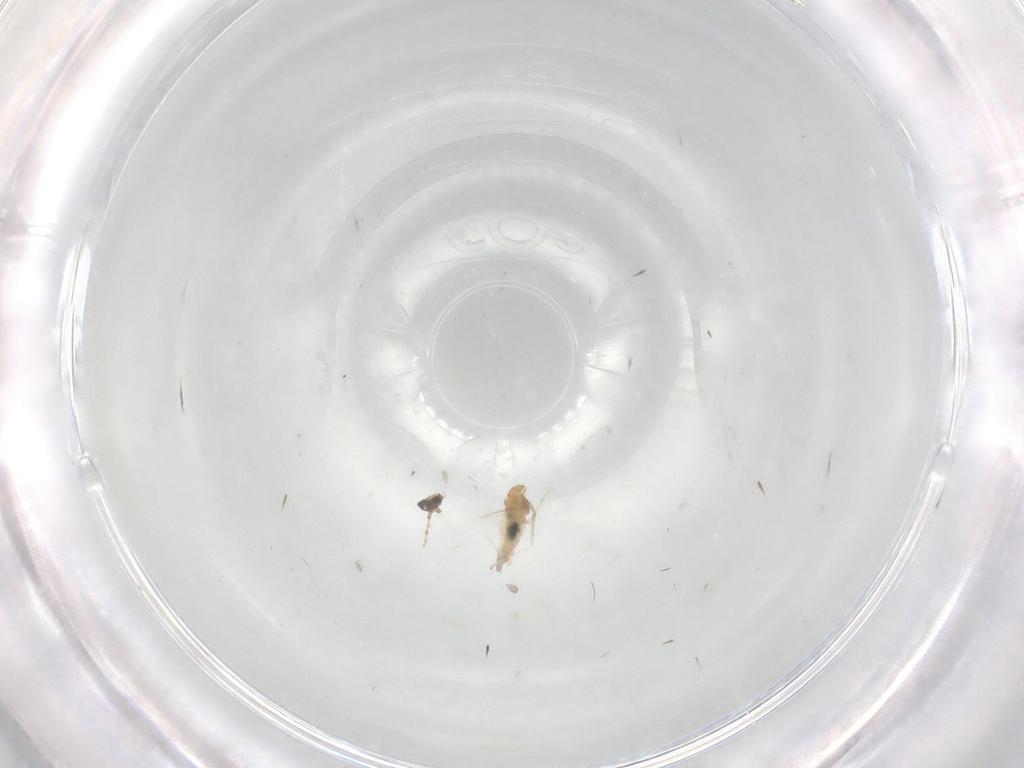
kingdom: Animalia
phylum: Arthropoda
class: Insecta
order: Diptera
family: Phoridae
